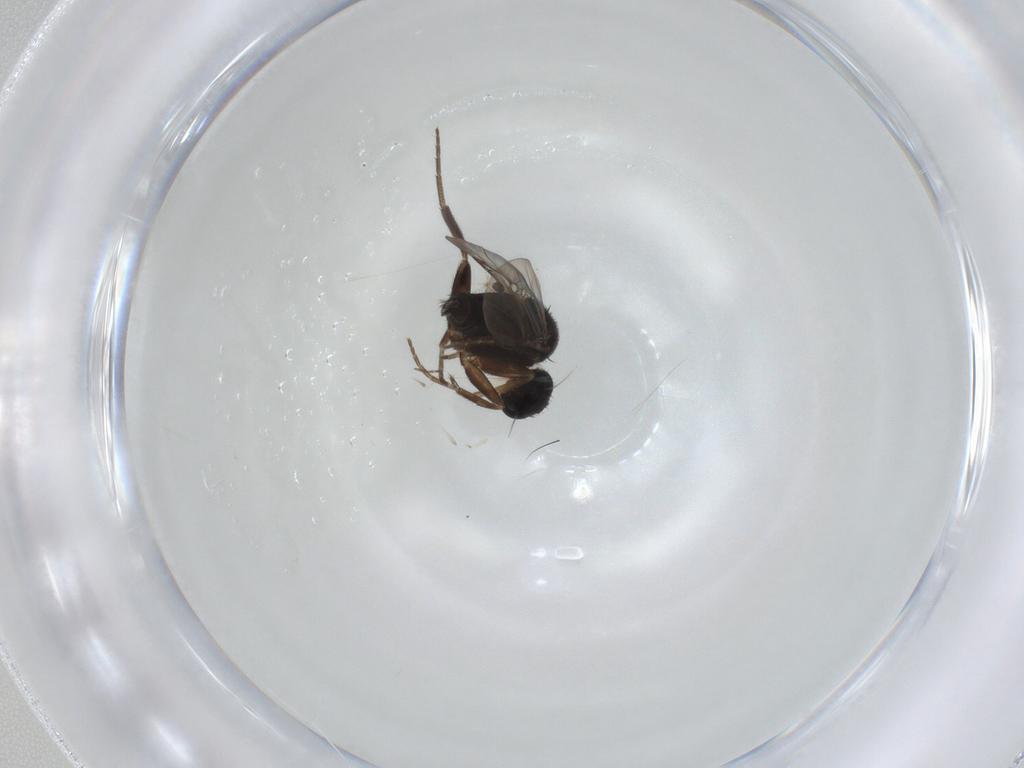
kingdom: Animalia
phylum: Arthropoda
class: Insecta
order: Diptera
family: Phoridae
